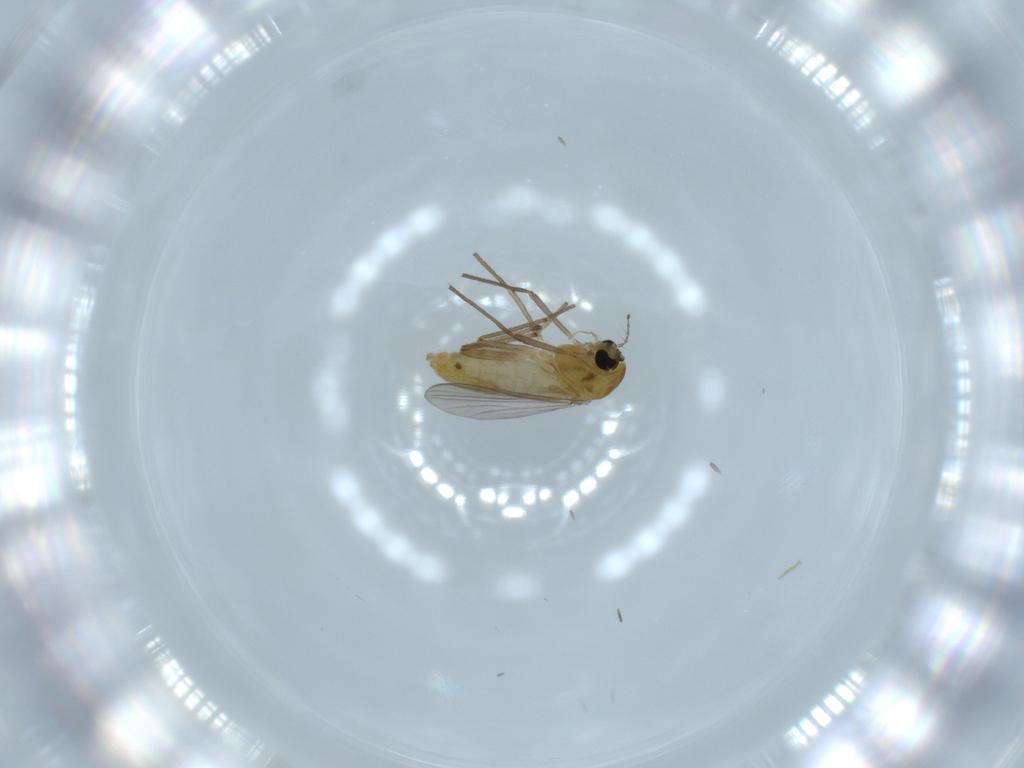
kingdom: Animalia
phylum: Arthropoda
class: Insecta
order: Diptera
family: Chironomidae
